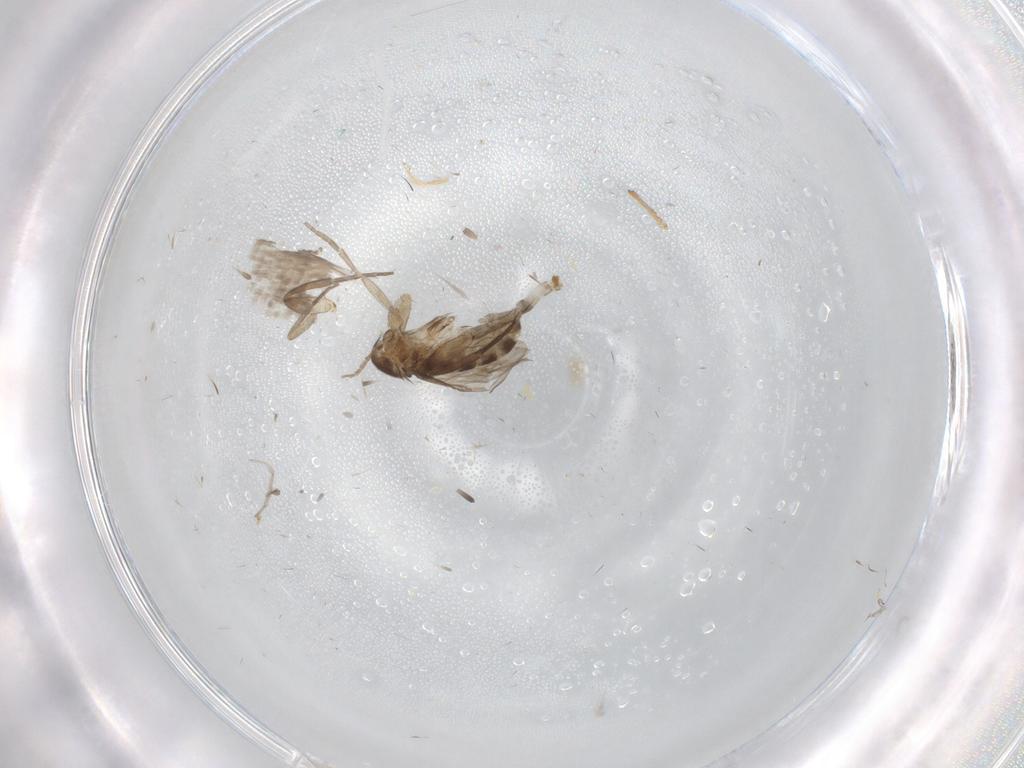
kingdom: Animalia
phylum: Arthropoda
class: Insecta
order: Diptera
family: Phoridae
